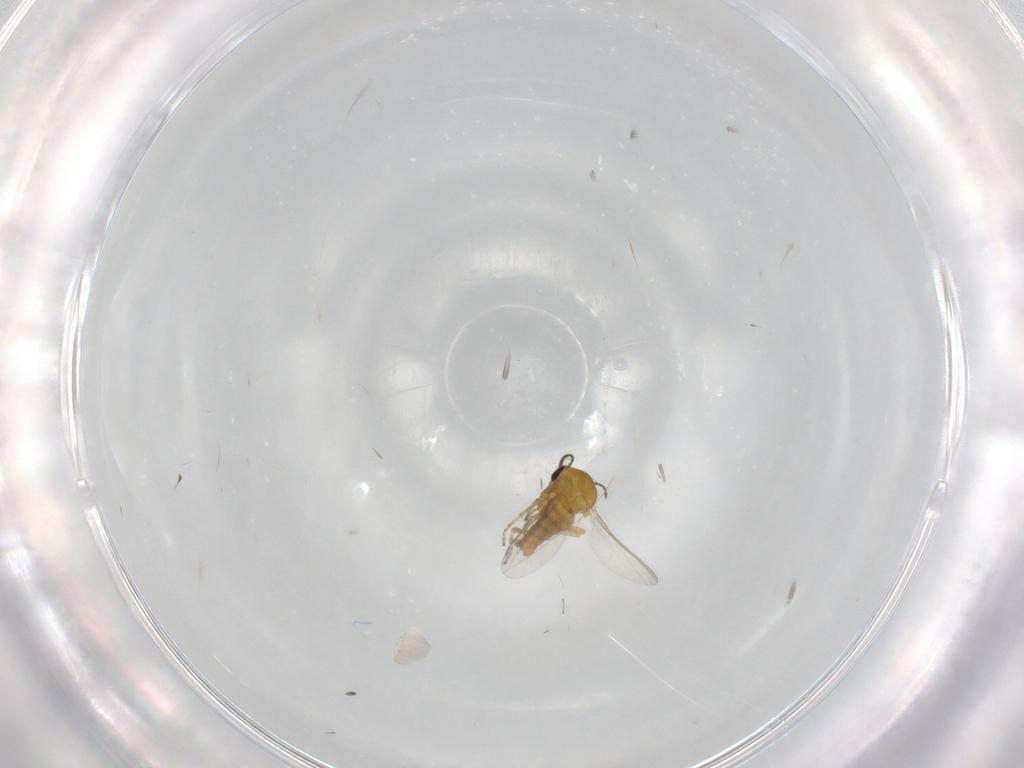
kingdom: Animalia
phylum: Arthropoda
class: Insecta
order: Diptera
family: Ceratopogonidae
